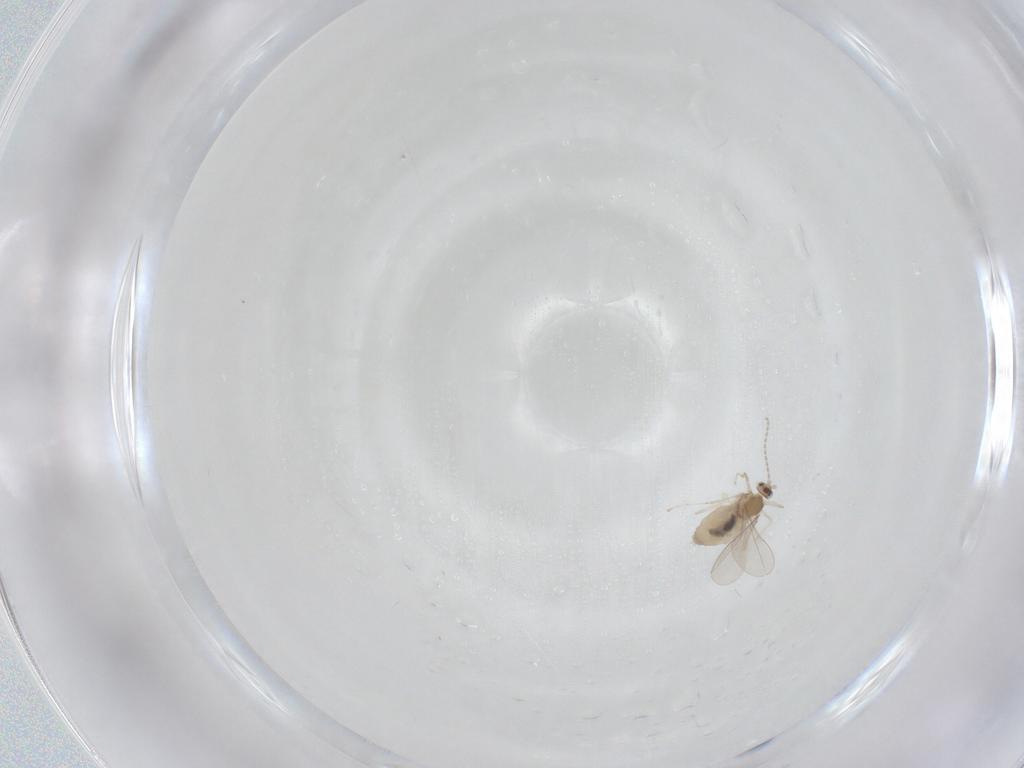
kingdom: Animalia
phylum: Arthropoda
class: Insecta
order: Diptera
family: Cecidomyiidae
